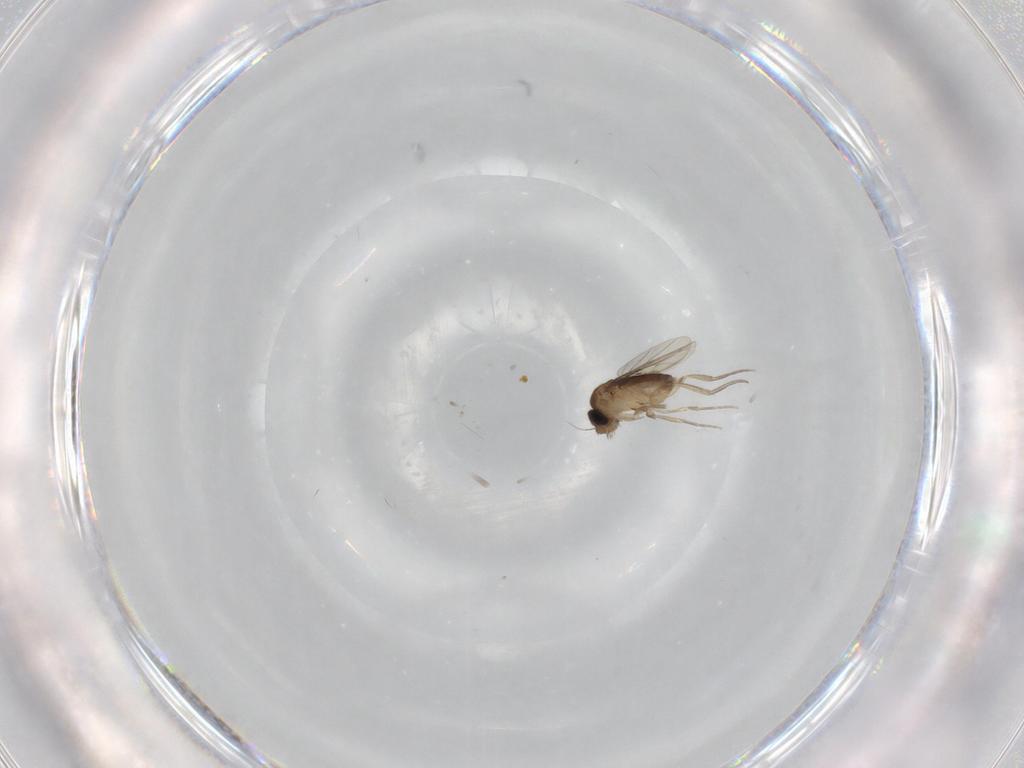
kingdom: Animalia
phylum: Arthropoda
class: Insecta
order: Diptera
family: Phoridae
